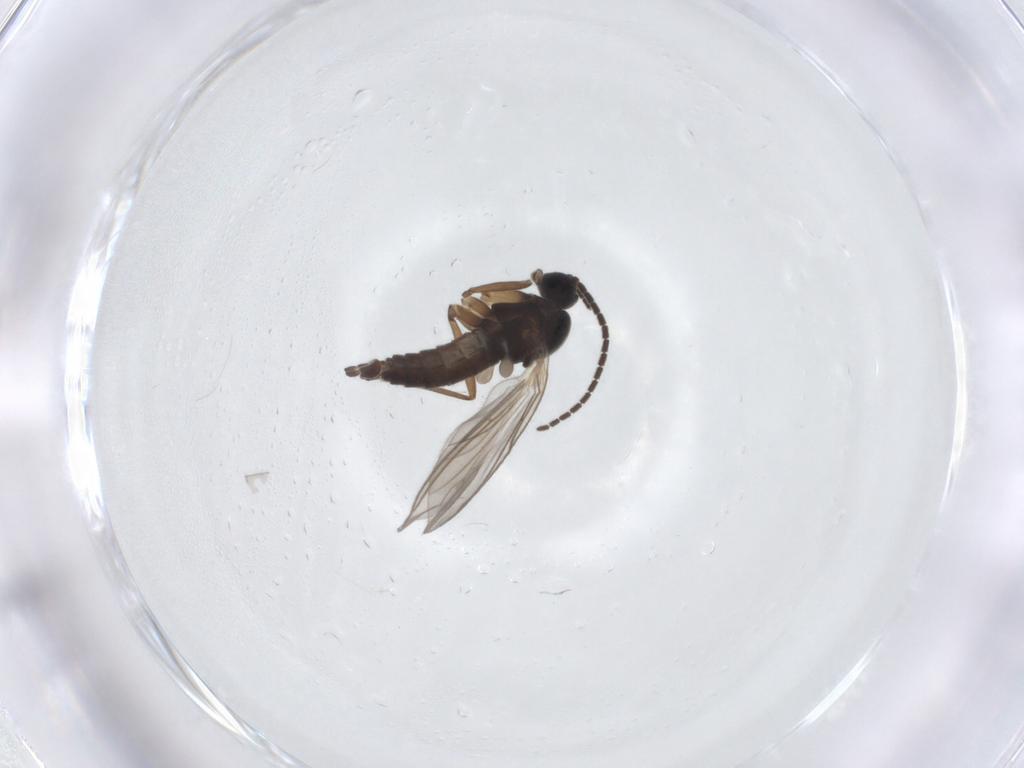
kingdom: Animalia
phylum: Arthropoda
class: Insecta
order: Diptera
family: Sciaridae
